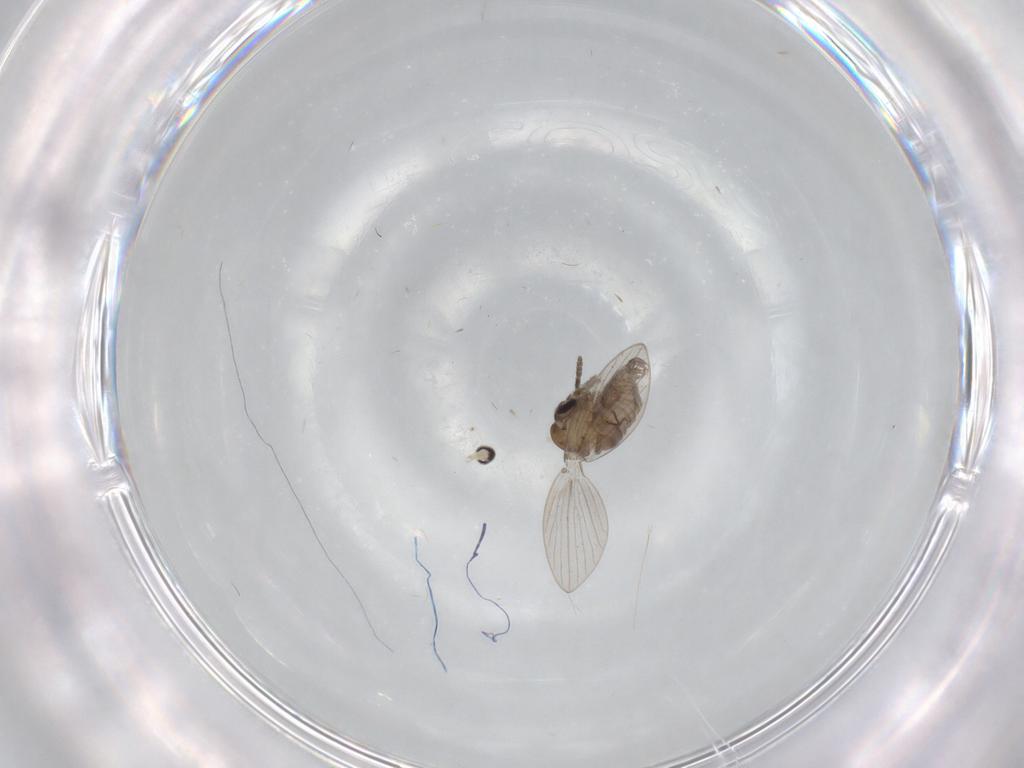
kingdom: Animalia
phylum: Arthropoda
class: Insecta
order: Diptera
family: Psychodidae
